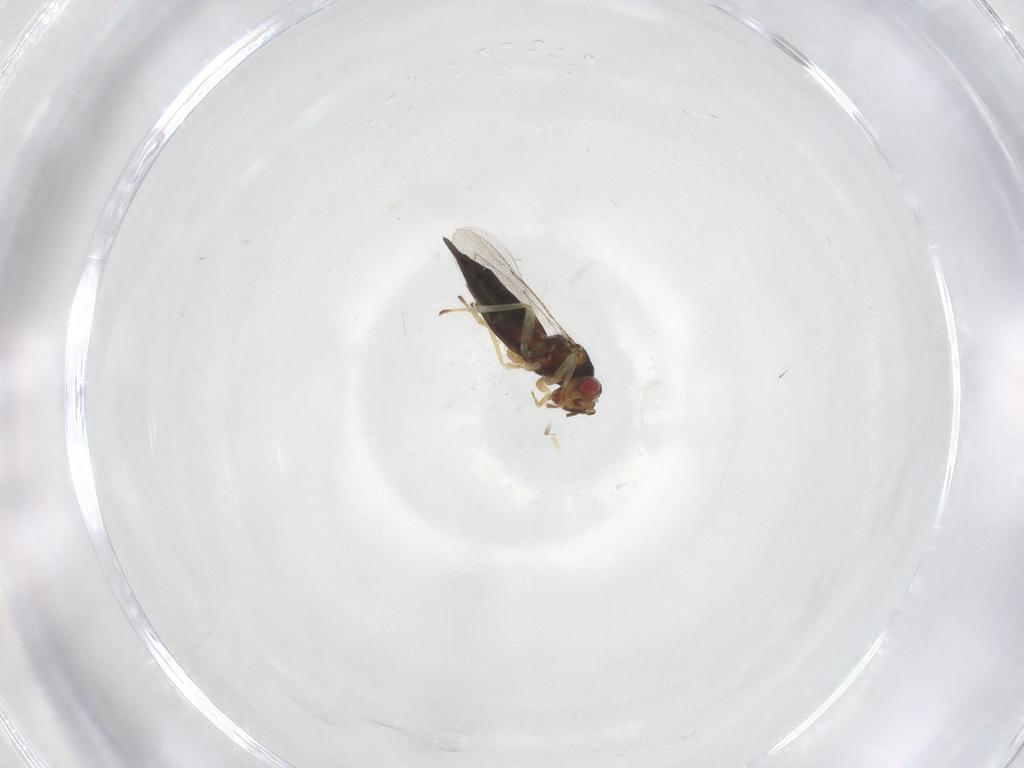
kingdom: Animalia
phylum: Arthropoda
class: Insecta
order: Hymenoptera
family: Eulophidae
